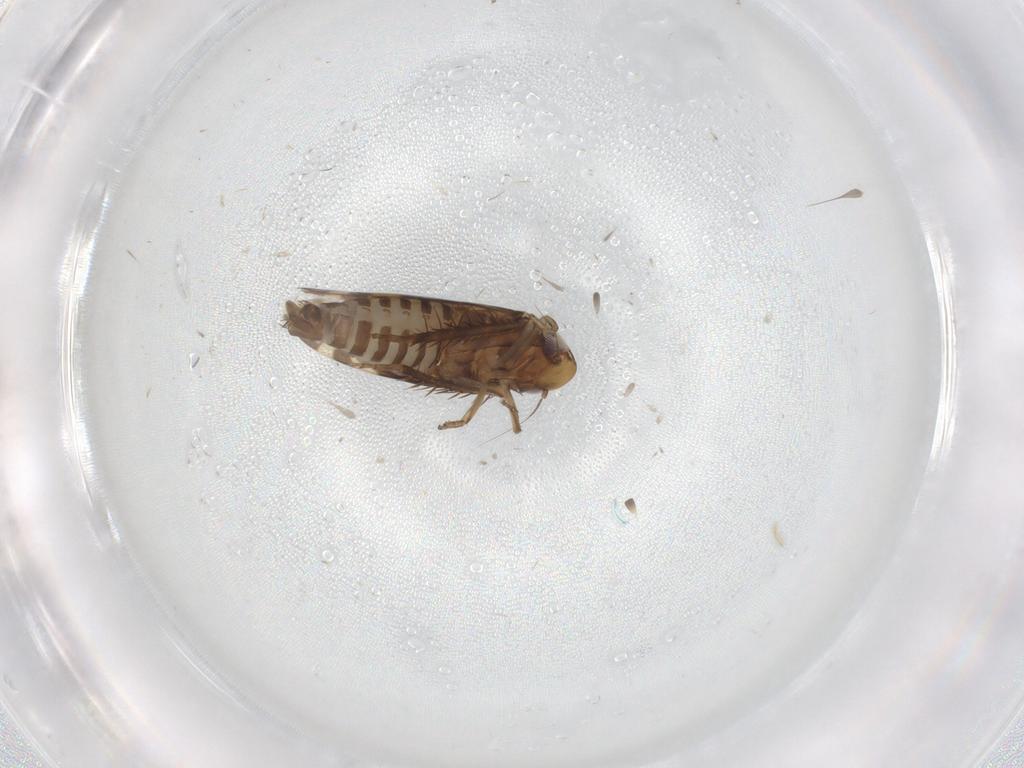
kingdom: Animalia
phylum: Arthropoda
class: Insecta
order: Hemiptera
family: Cicadellidae
